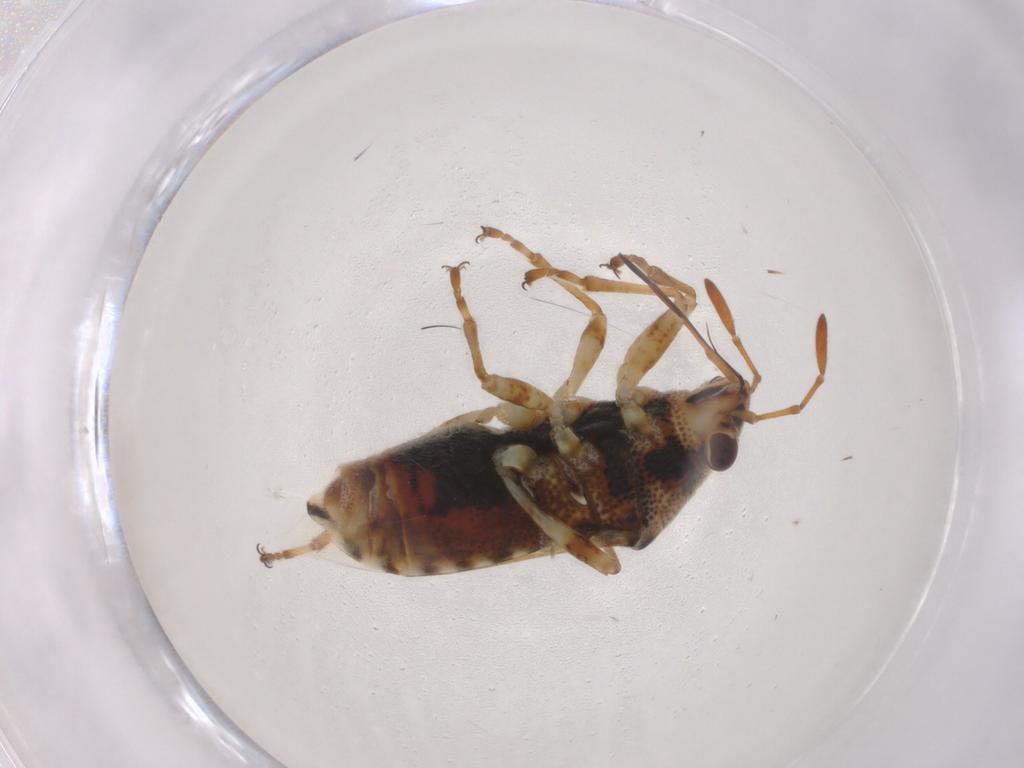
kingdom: Animalia
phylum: Arthropoda
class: Insecta
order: Hemiptera
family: Lygaeidae
